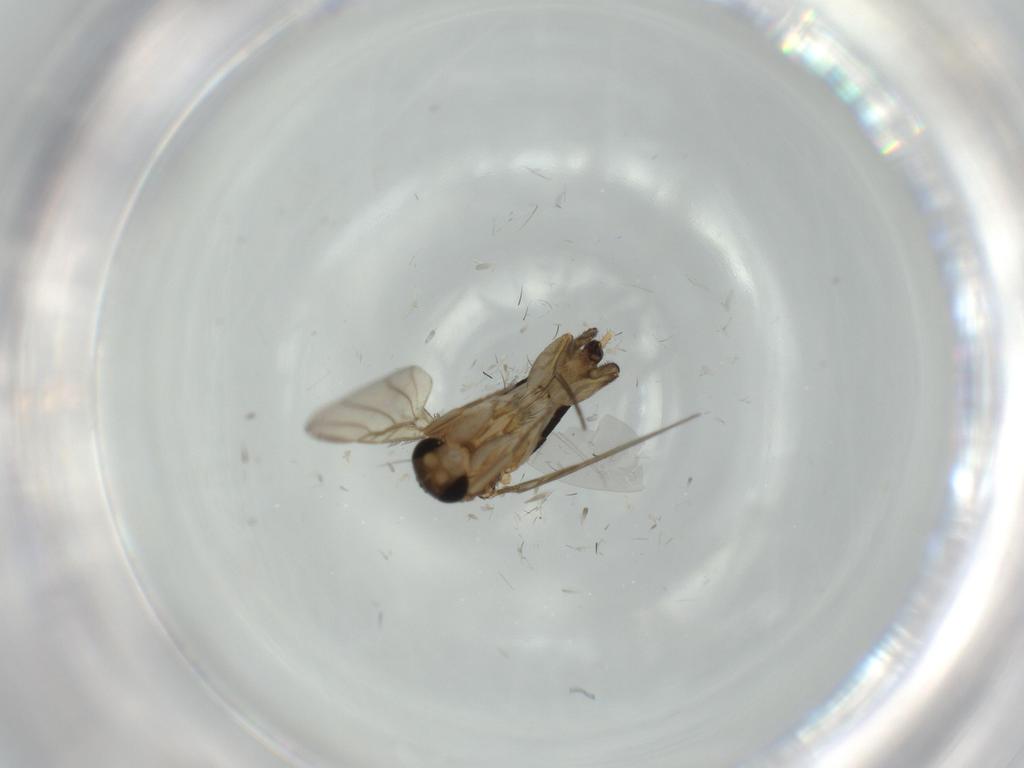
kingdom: Animalia
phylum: Arthropoda
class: Insecta
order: Diptera
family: Phoridae
